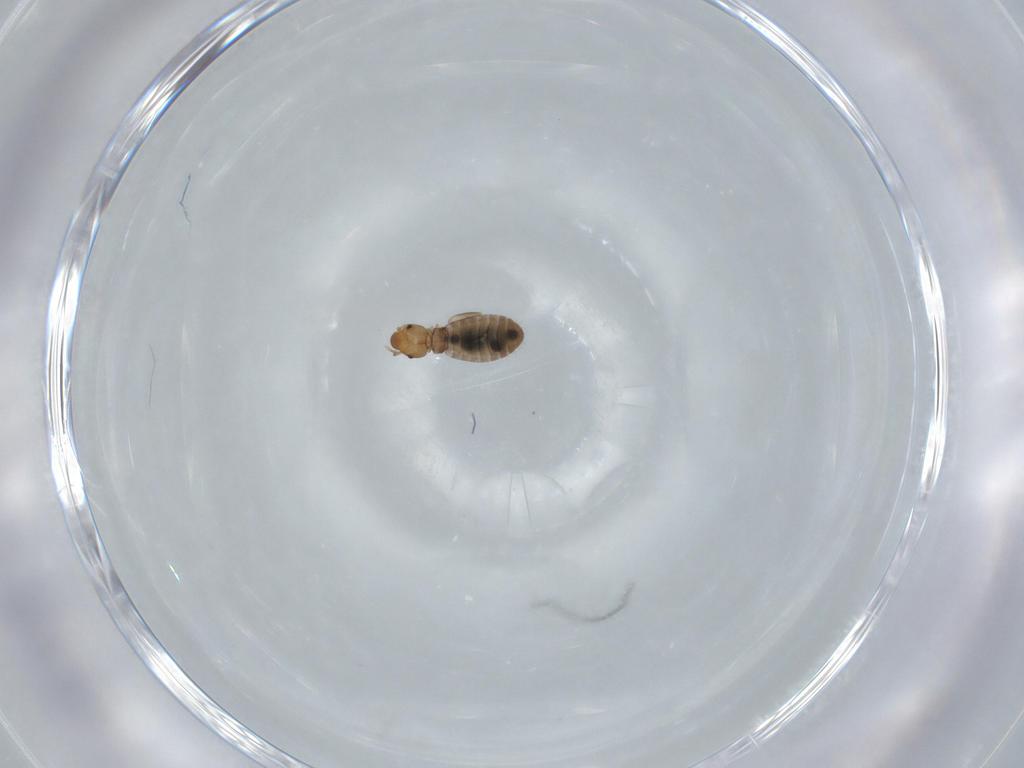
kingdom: Animalia
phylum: Arthropoda
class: Insecta
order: Psocodea
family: Liposcelididae
